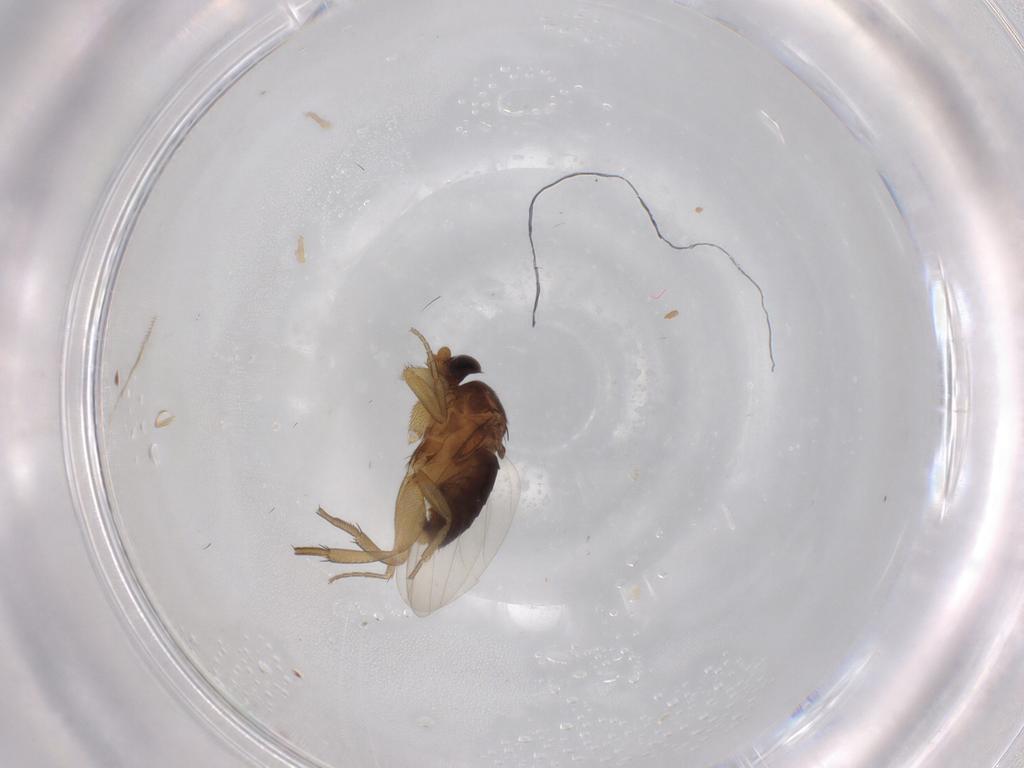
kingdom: Animalia
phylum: Arthropoda
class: Insecta
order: Diptera
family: Phoridae
